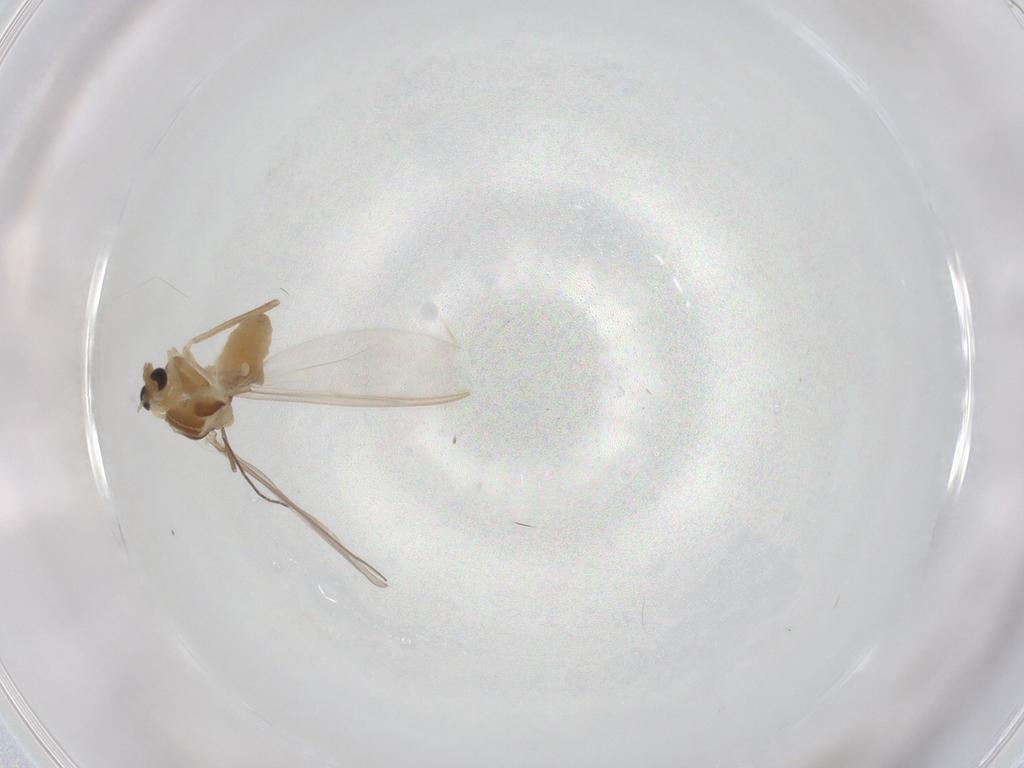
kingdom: Animalia
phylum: Arthropoda
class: Insecta
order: Diptera
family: Chironomidae
